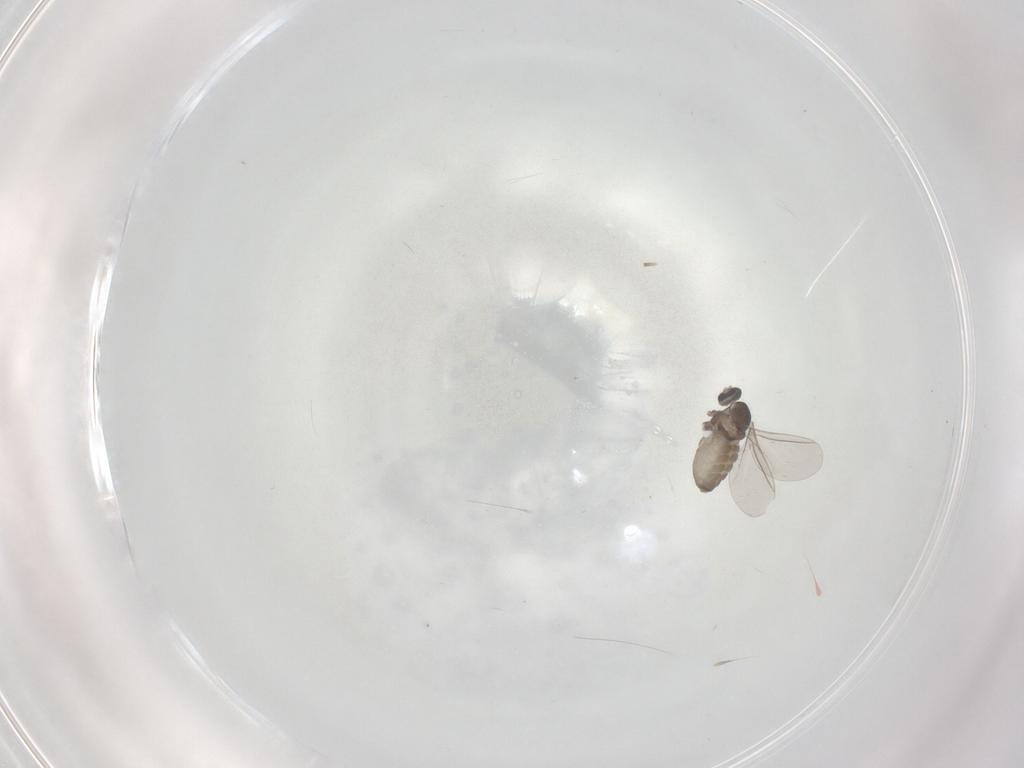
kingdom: Animalia
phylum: Arthropoda
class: Insecta
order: Diptera
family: Cecidomyiidae
